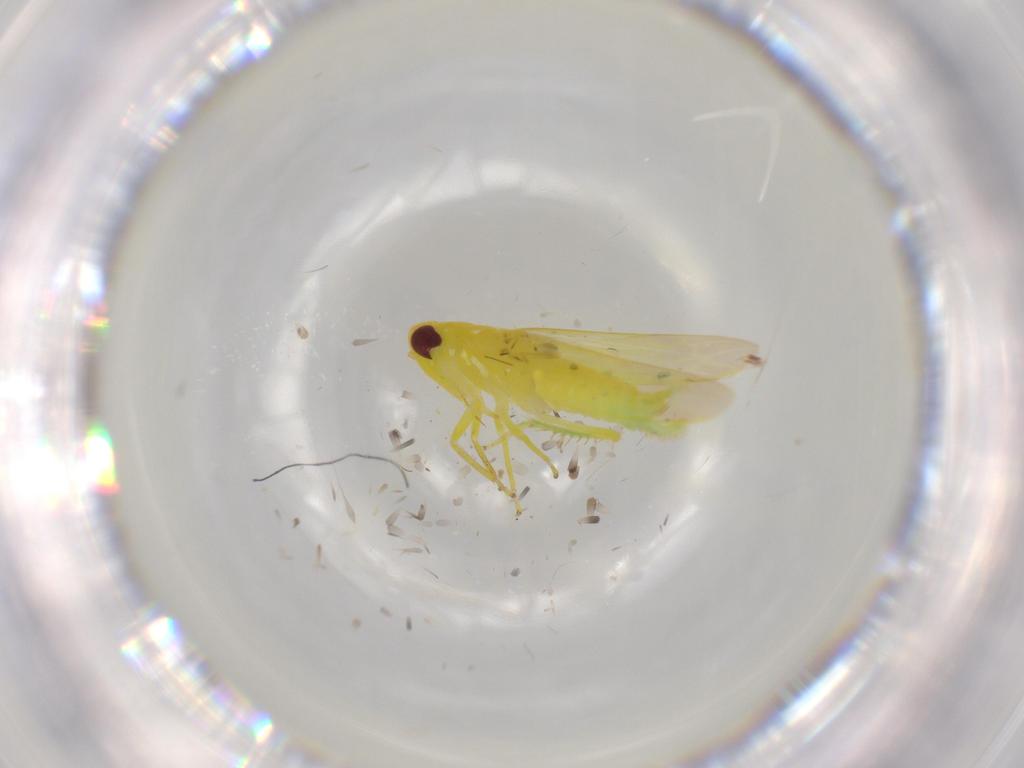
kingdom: Animalia
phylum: Arthropoda
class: Insecta
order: Hemiptera
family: Cicadellidae
